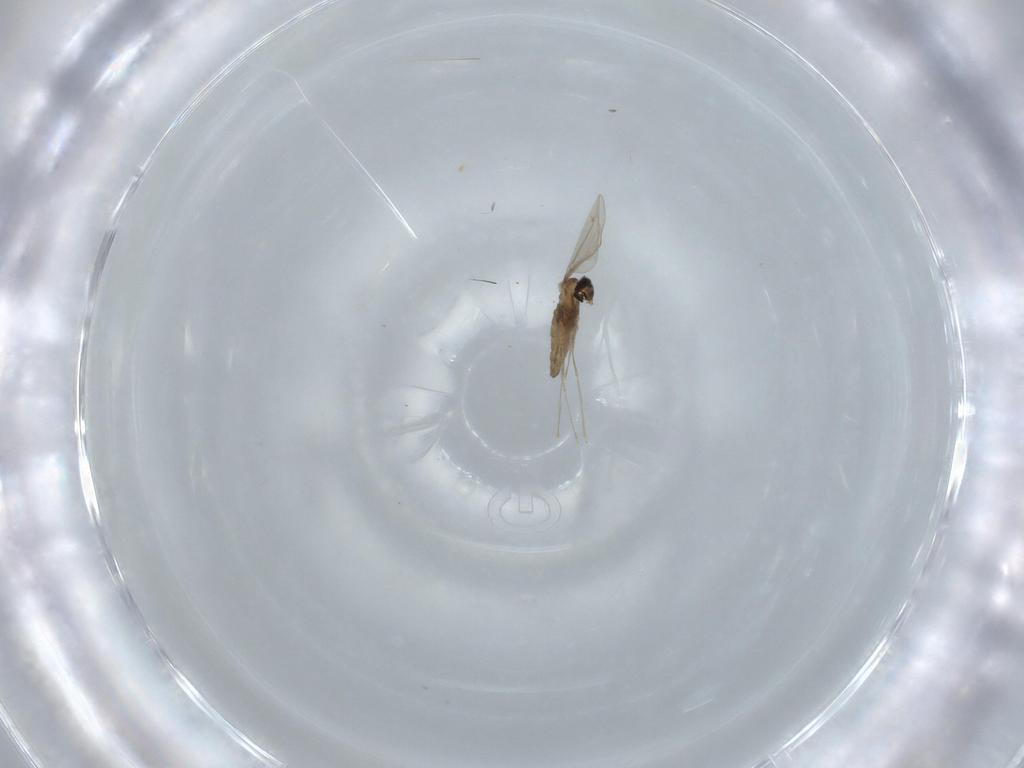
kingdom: Animalia
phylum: Arthropoda
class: Insecta
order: Diptera
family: Cecidomyiidae
